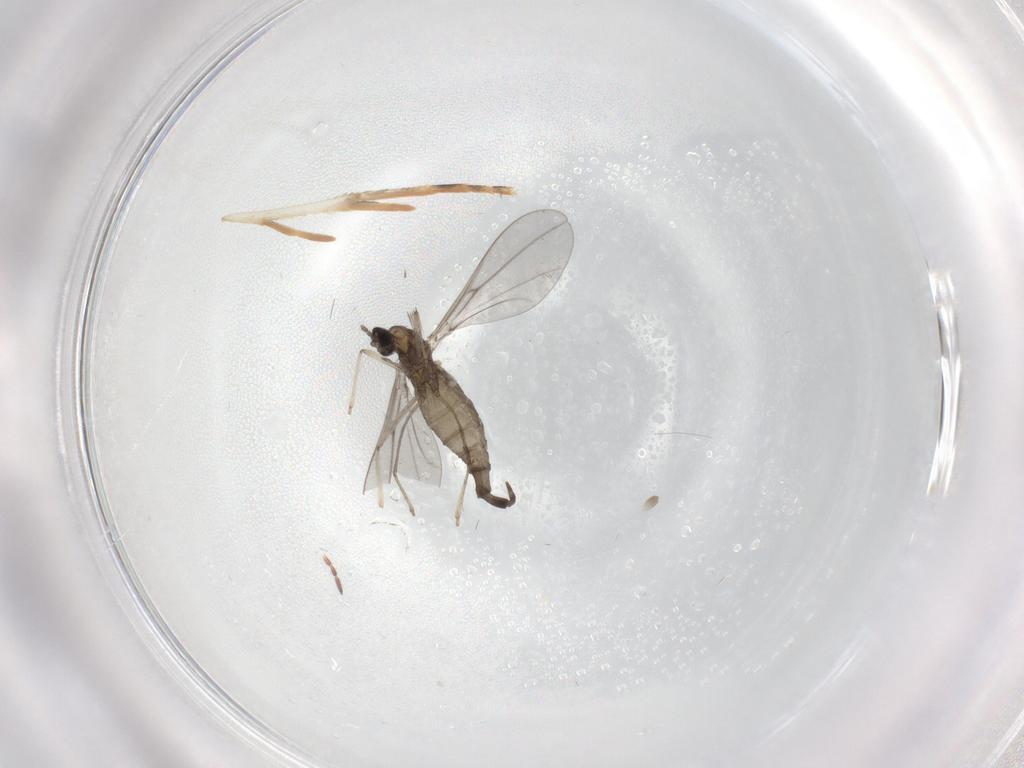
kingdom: Animalia
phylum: Arthropoda
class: Insecta
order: Diptera
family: Cecidomyiidae
